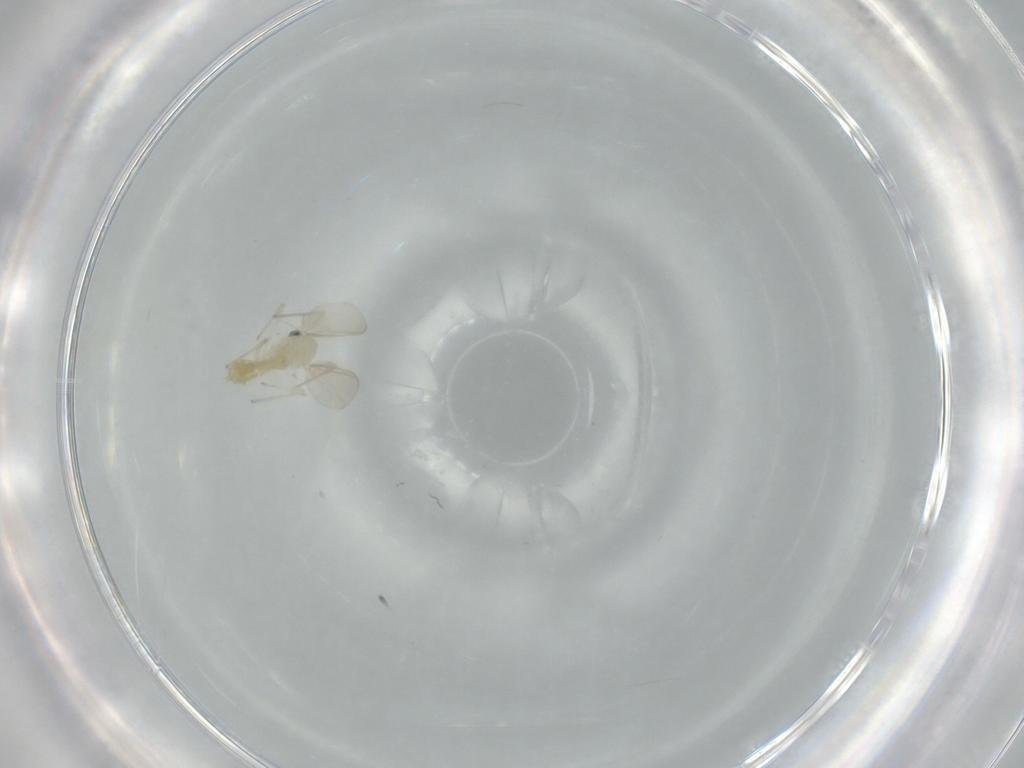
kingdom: Animalia
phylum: Arthropoda
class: Insecta
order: Diptera
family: Chironomidae
